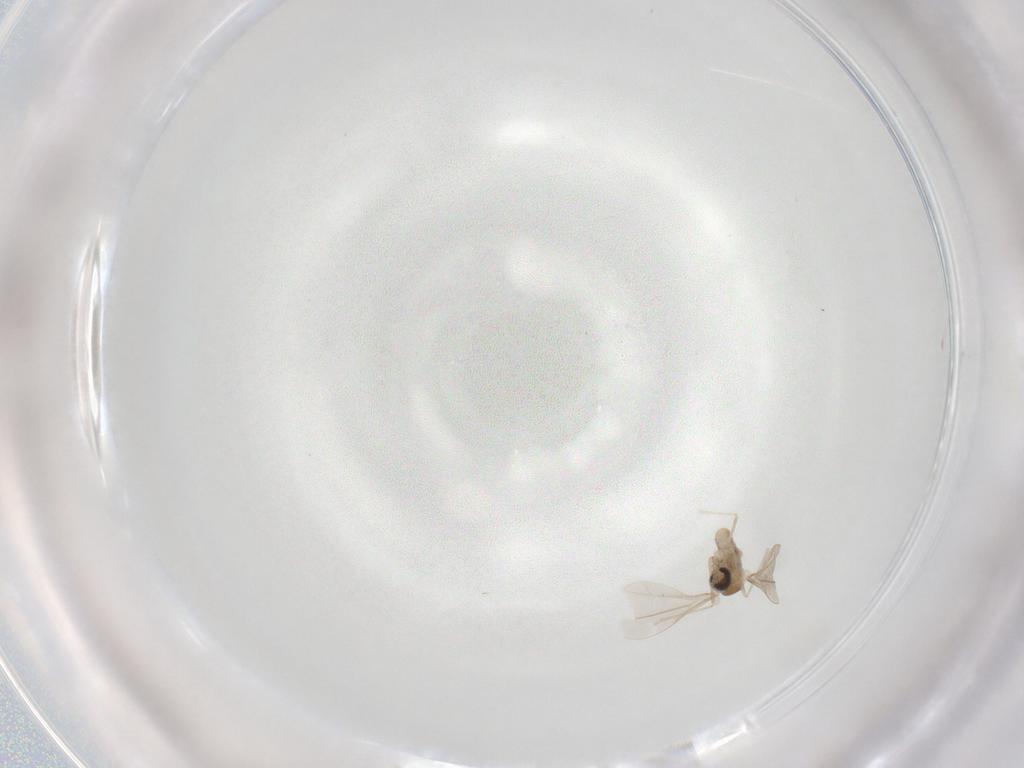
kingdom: Animalia
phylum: Arthropoda
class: Insecta
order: Diptera
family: Cecidomyiidae
